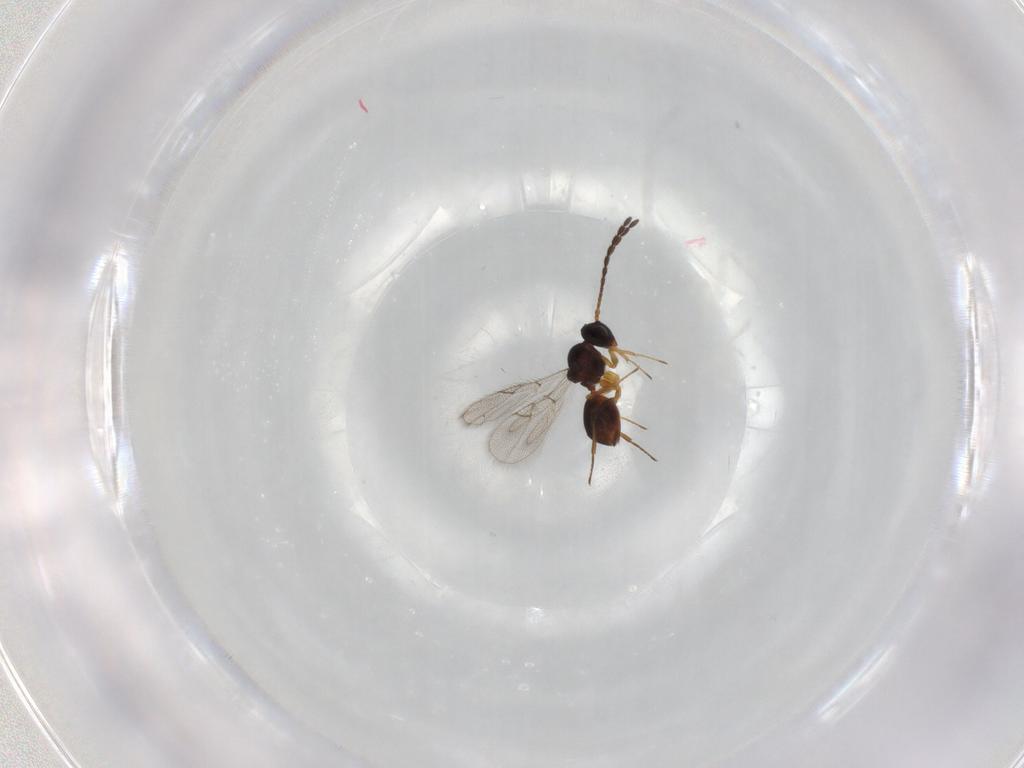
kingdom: Animalia
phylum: Arthropoda
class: Insecta
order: Hymenoptera
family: Figitidae
